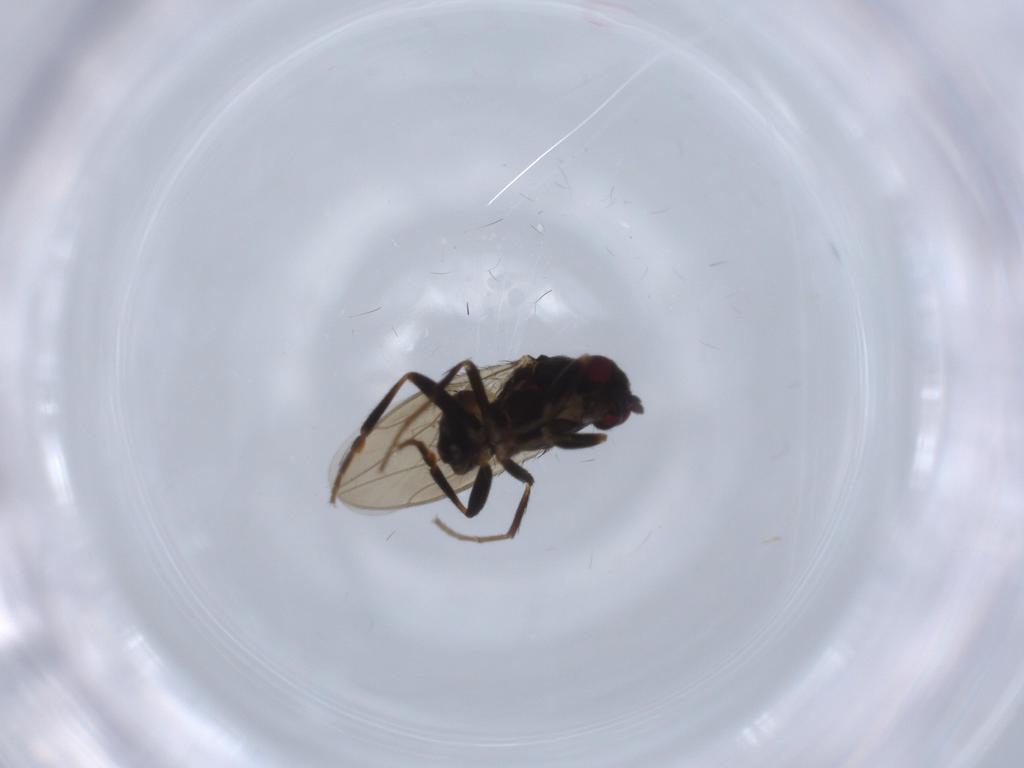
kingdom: Animalia
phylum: Arthropoda
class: Insecta
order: Diptera
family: Sphaeroceridae
